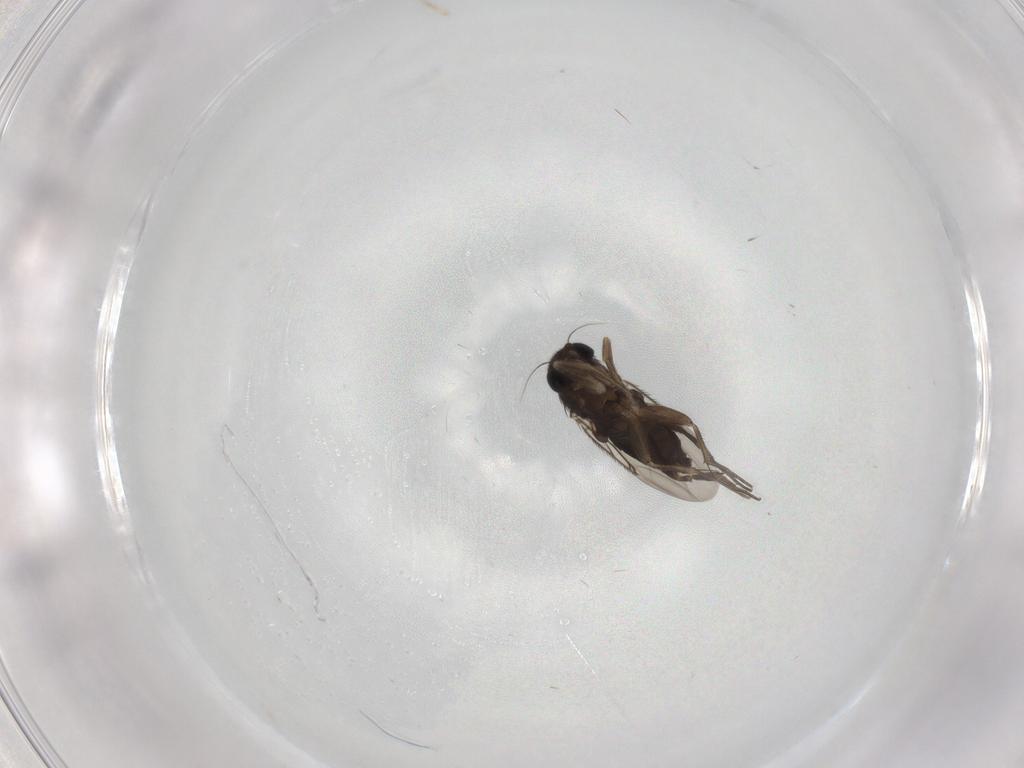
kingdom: Animalia
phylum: Arthropoda
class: Insecta
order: Diptera
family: Phoridae
